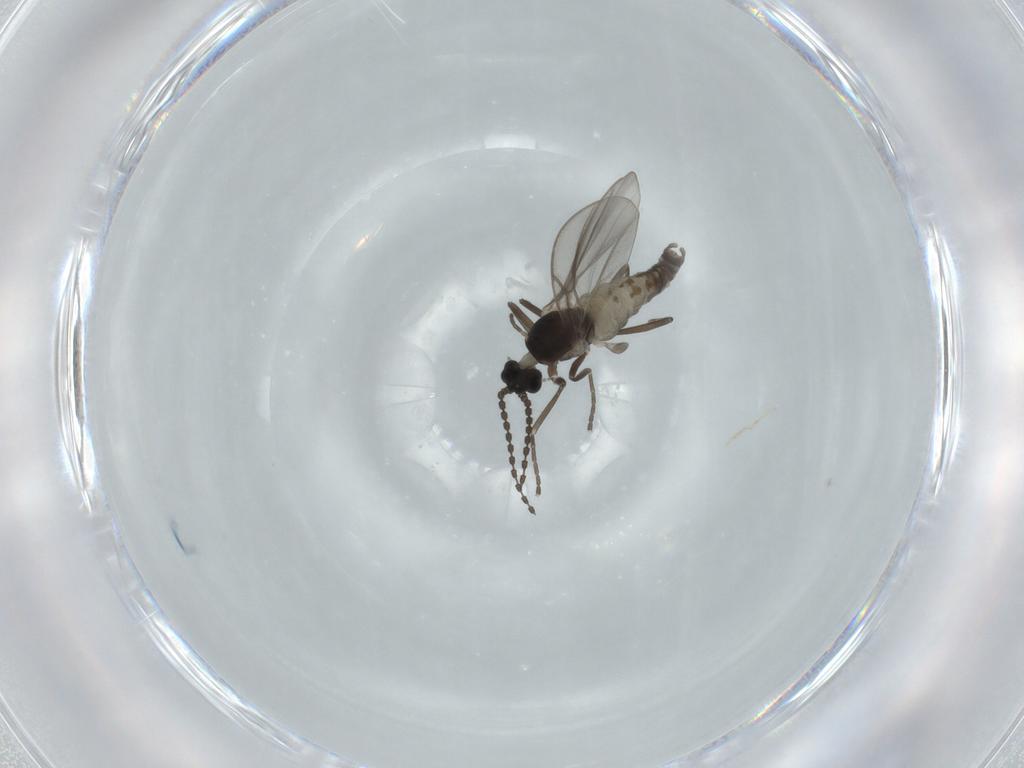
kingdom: Animalia
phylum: Arthropoda
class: Insecta
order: Diptera
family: Cecidomyiidae
